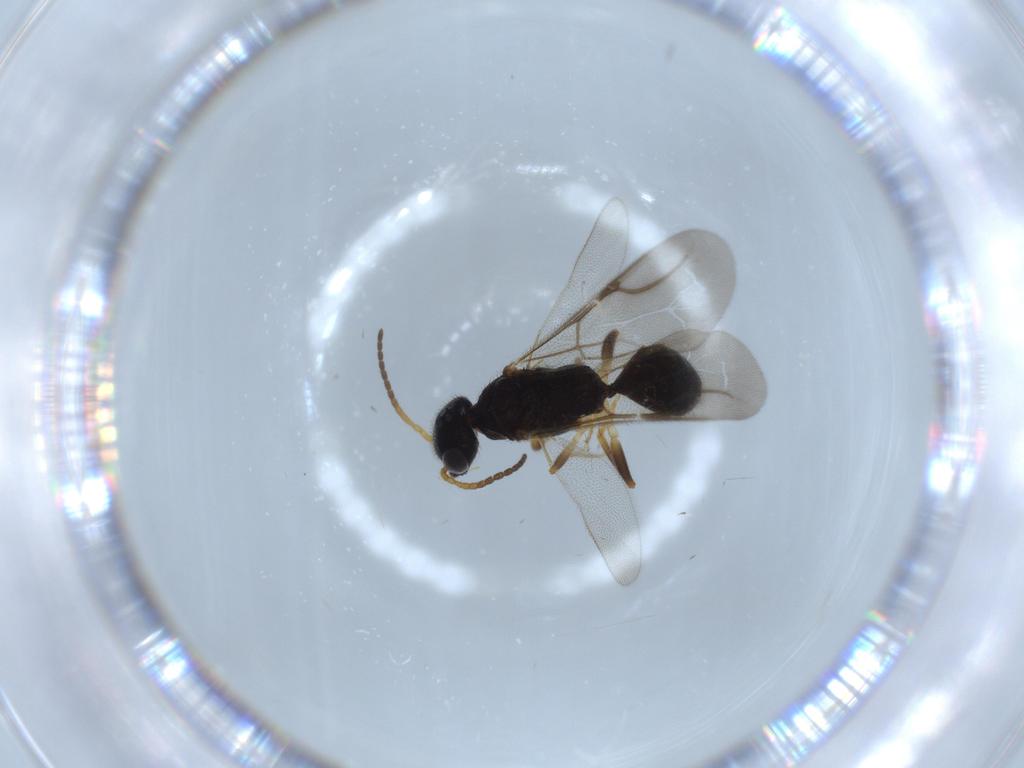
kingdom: Animalia
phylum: Arthropoda
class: Insecta
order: Hymenoptera
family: Bethylidae
